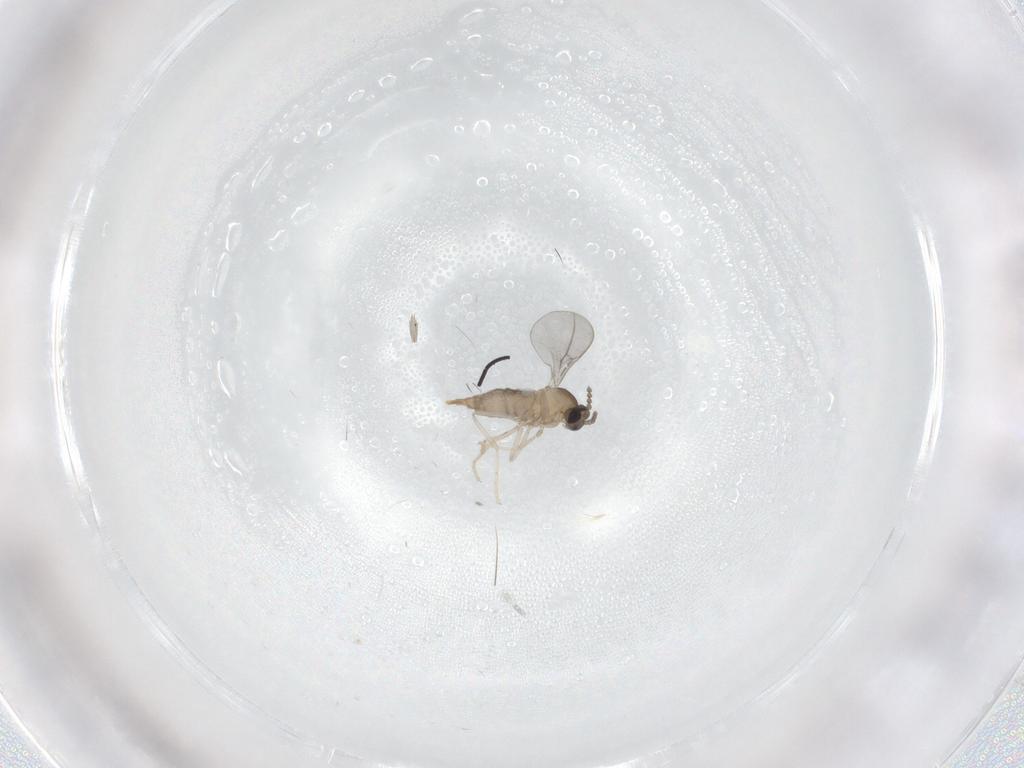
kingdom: Animalia
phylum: Arthropoda
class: Insecta
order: Diptera
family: Cecidomyiidae
